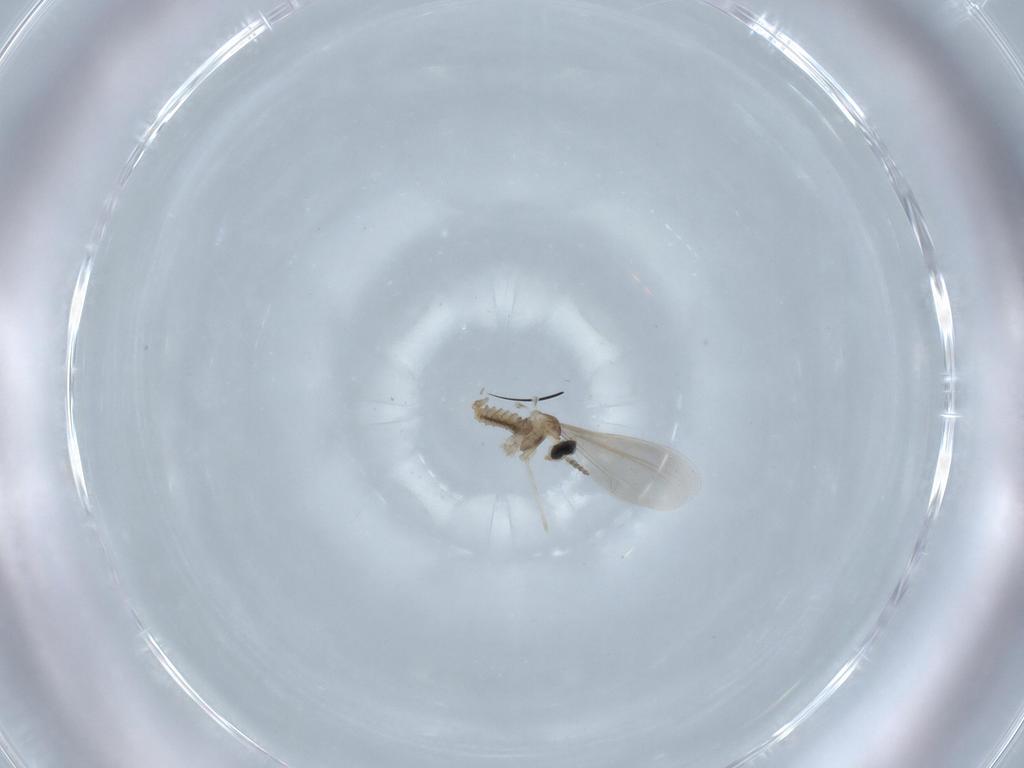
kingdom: Animalia
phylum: Arthropoda
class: Insecta
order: Diptera
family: Cecidomyiidae
